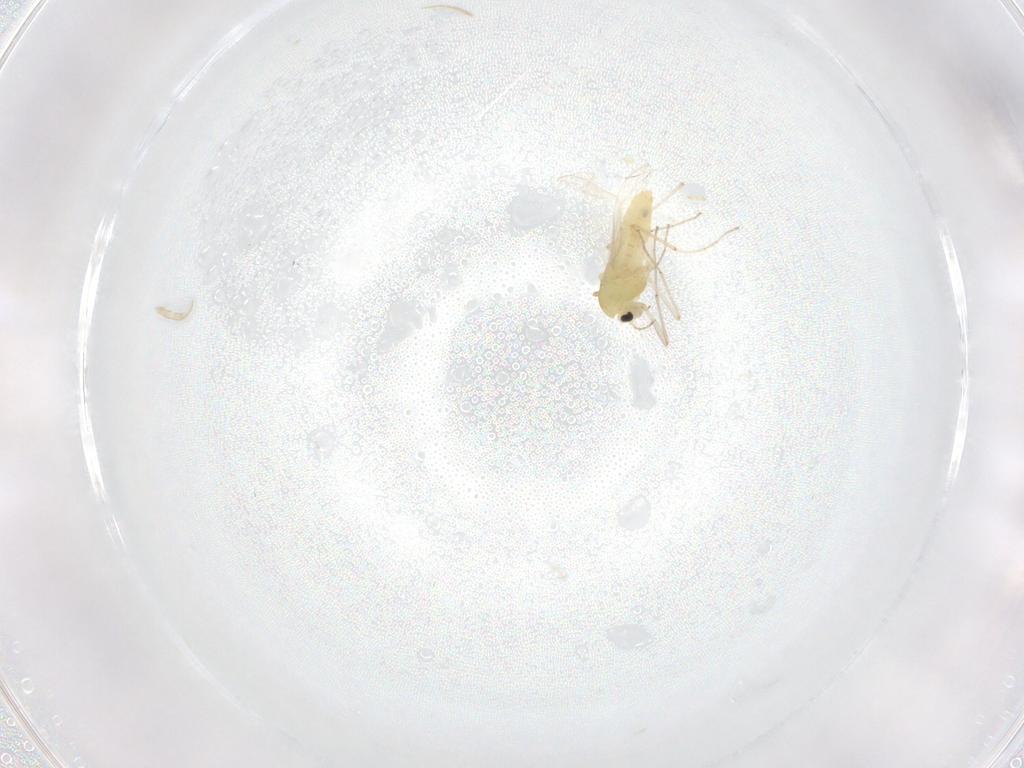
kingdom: Animalia
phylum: Arthropoda
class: Insecta
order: Diptera
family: Chironomidae
